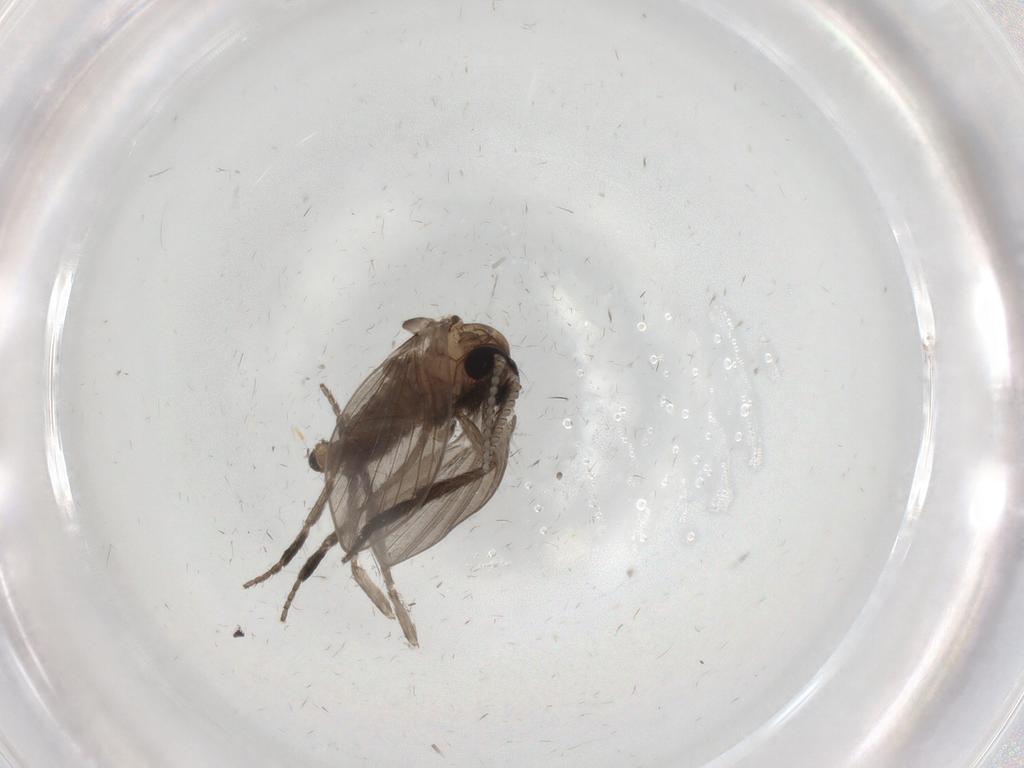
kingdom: Animalia
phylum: Arthropoda
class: Insecta
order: Diptera
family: Psychodidae
